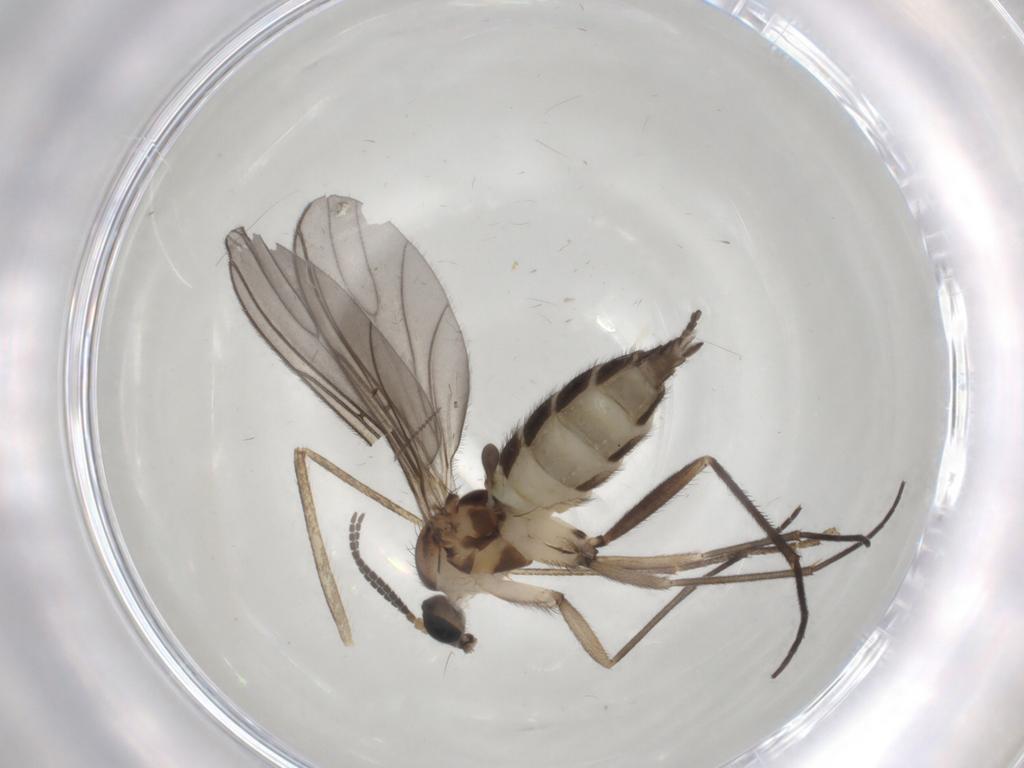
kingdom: Animalia
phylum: Arthropoda
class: Insecta
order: Diptera
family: Sciaridae
